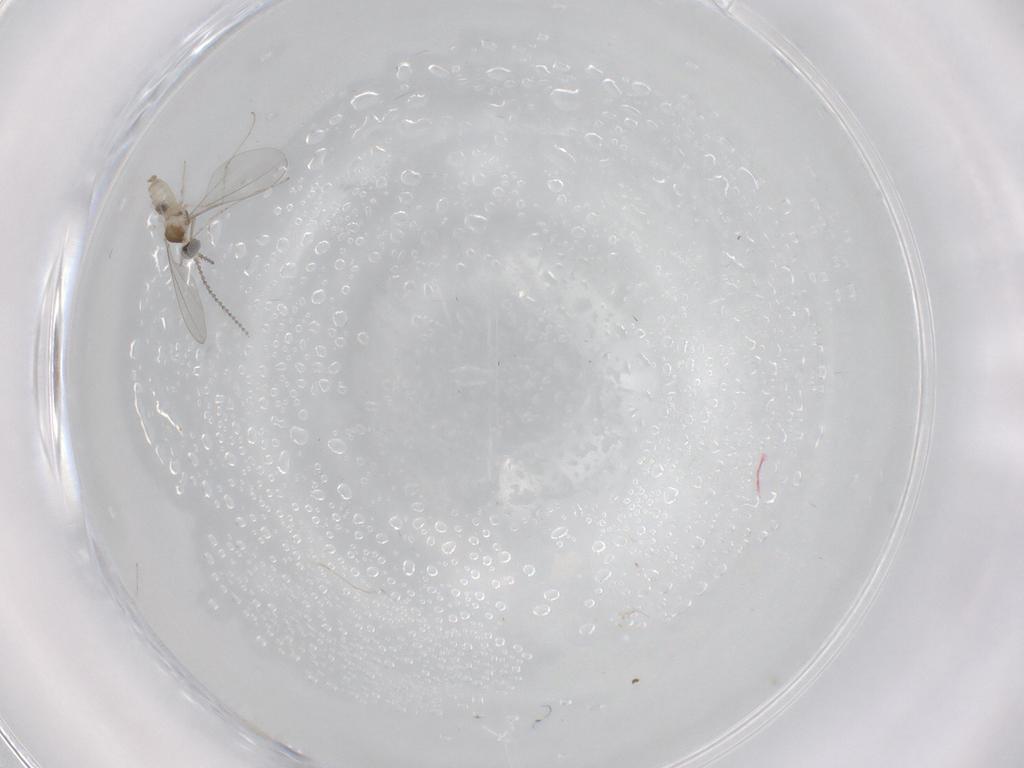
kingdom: Animalia
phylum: Arthropoda
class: Insecta
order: Diptera
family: Cecidomyiidae
